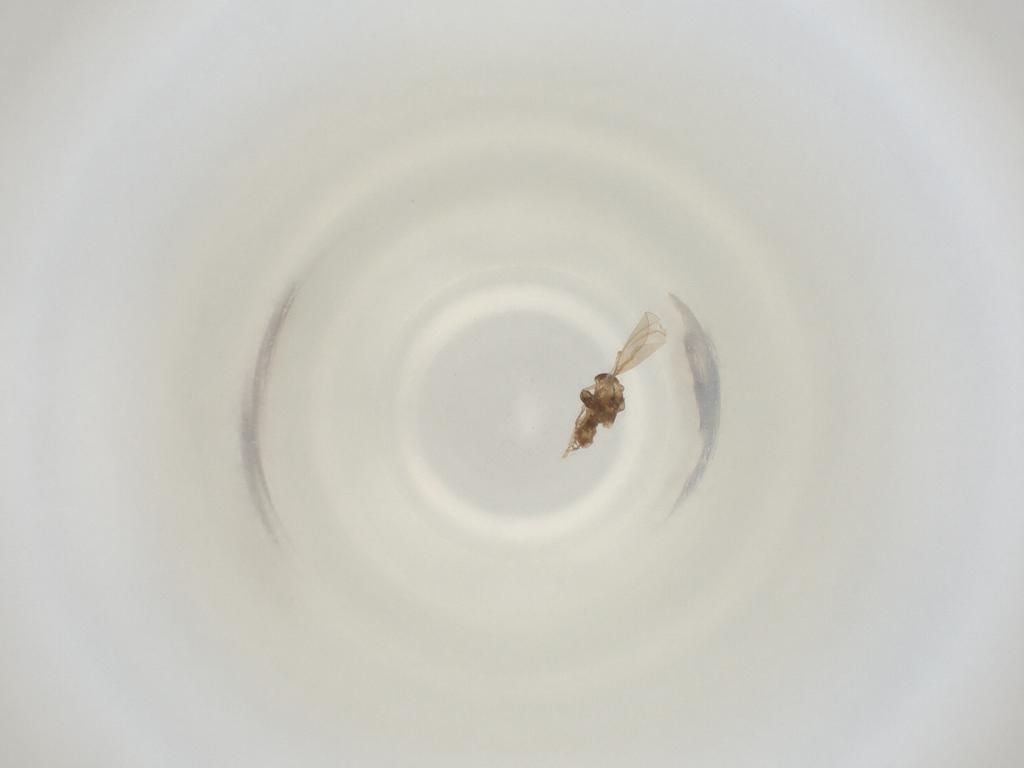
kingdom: Animalia
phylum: Arthropoda
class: Insecta
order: Diptera
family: Cecidomyiidae
